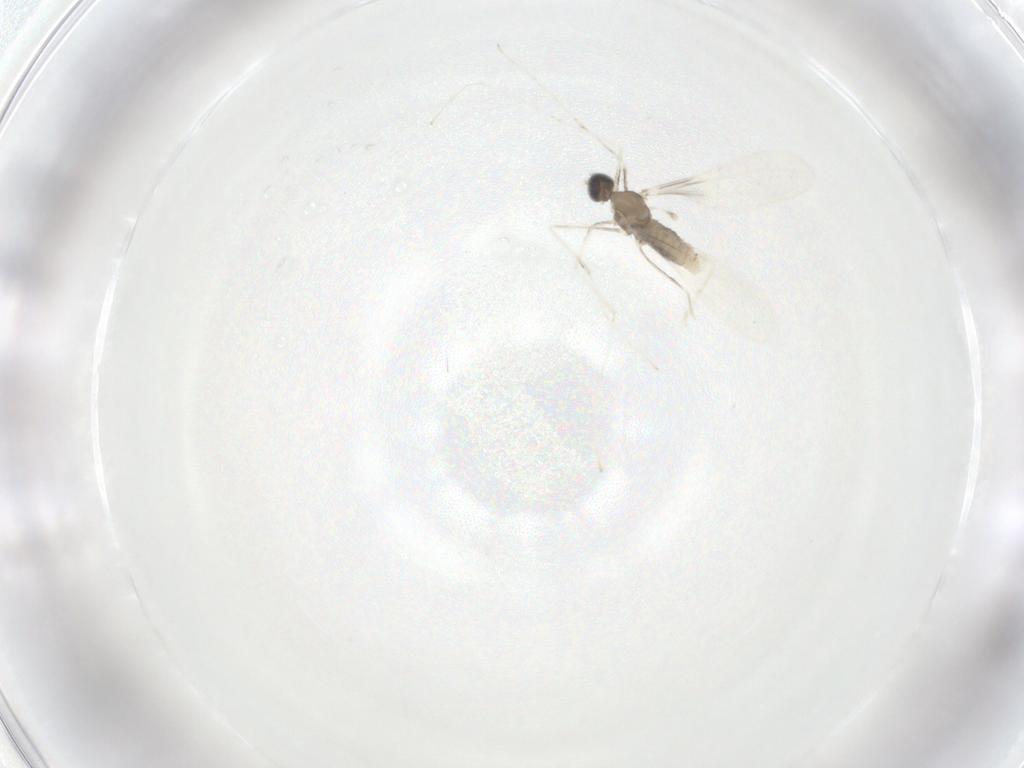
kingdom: Animalia
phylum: Arthropoda
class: Insecta
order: Diptera
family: Cecidomyiidae
